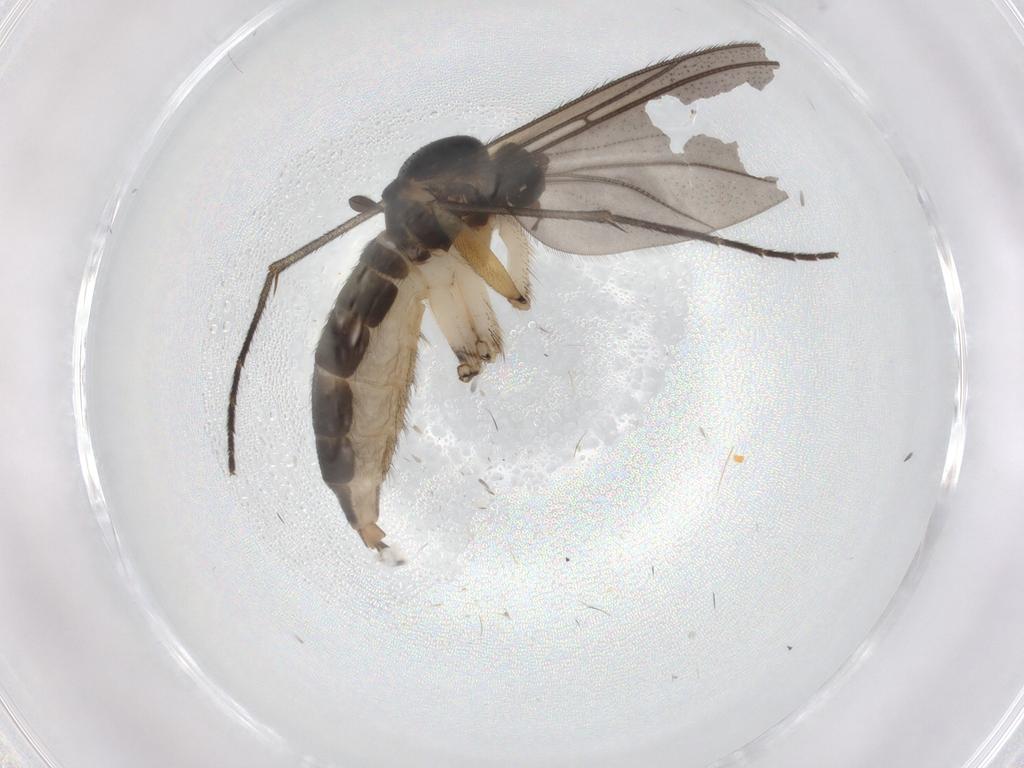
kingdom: Animalia
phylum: Arthropoda
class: Insecta
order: Diptera
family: Sciaridae
